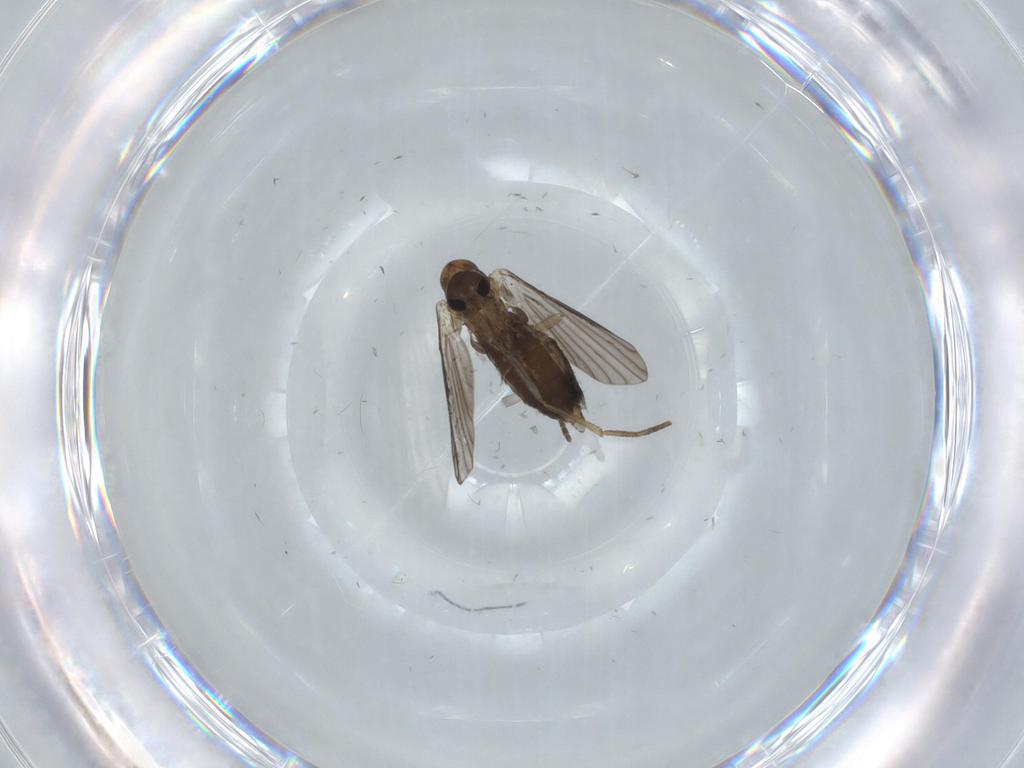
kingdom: Animalia
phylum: Arthropoda
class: Insecta
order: Diptera
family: Psychodidae
